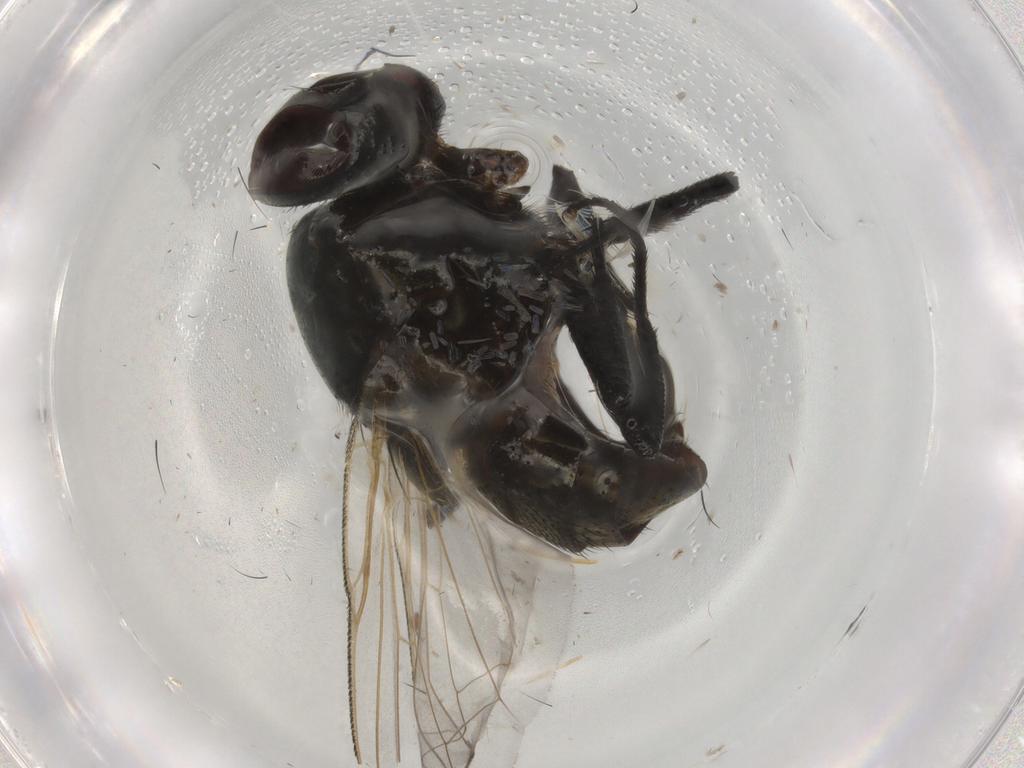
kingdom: Animalia
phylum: Arthropoda
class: Insecta
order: Diptera
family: Muscidae
